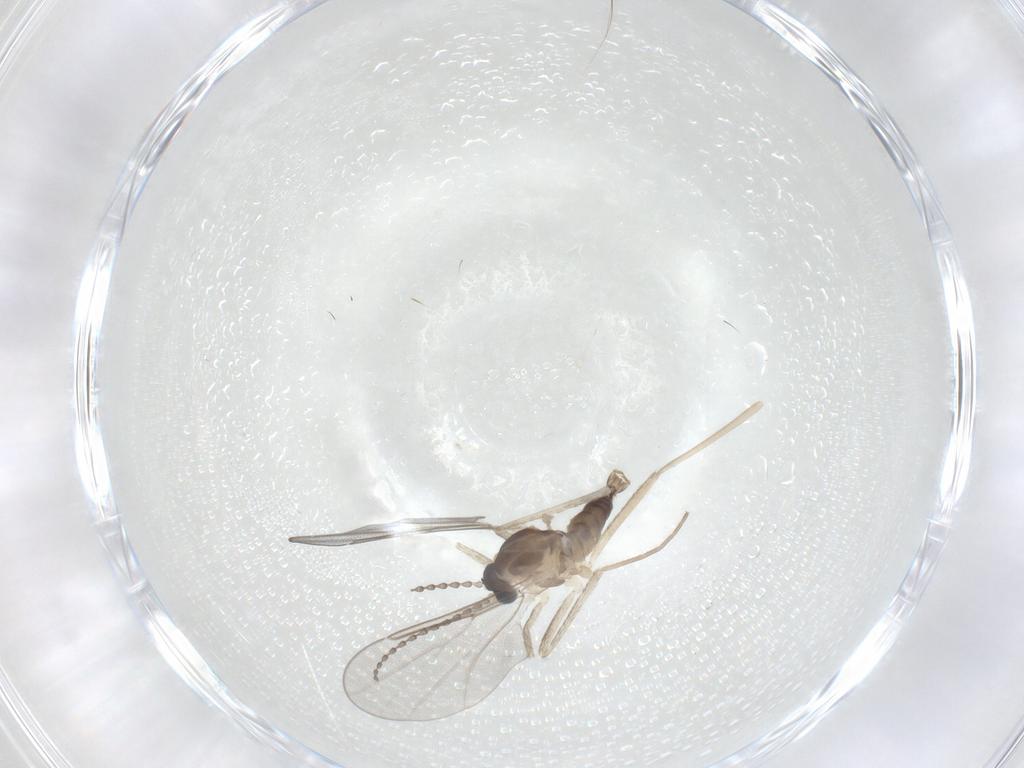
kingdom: Animalia
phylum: Arthropoda
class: Insecta
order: Diptera
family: Cecidomyiidae
